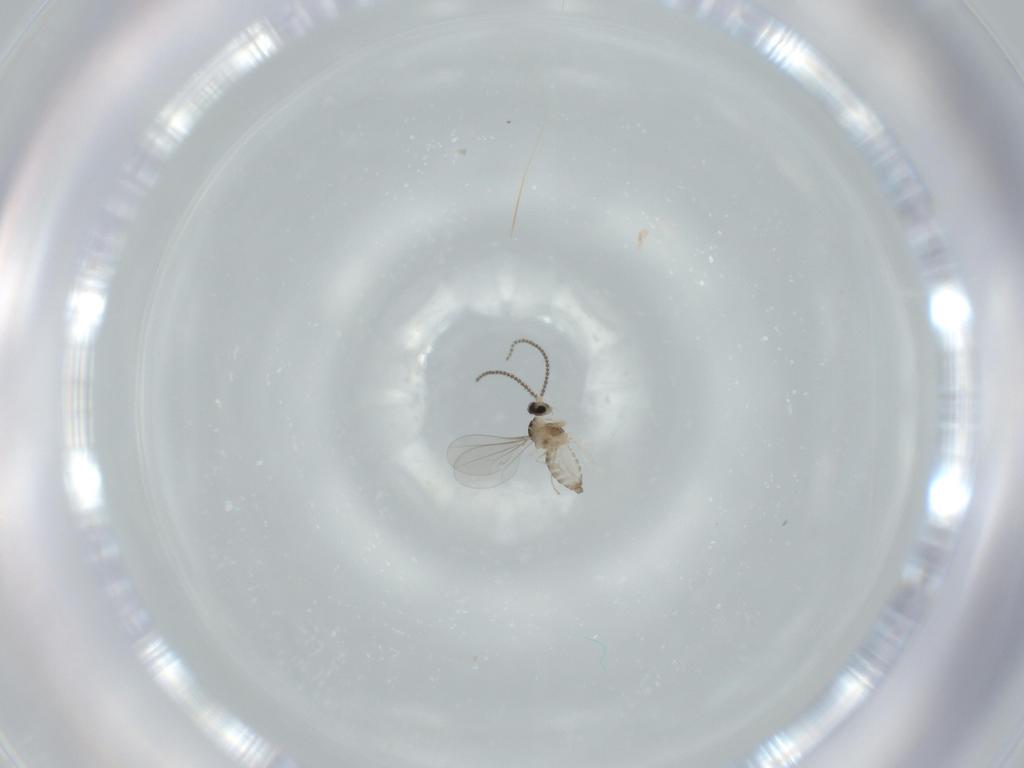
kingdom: Animalia
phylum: Arthropoda
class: Insecta
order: Diptera
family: Cecidomyiidae
